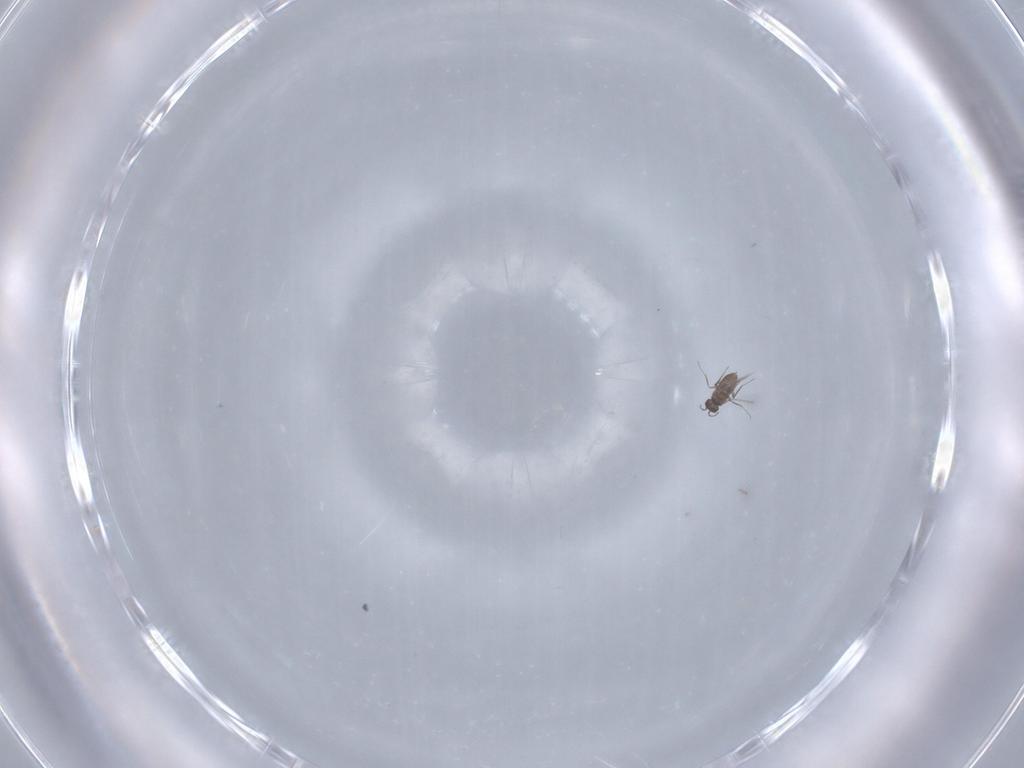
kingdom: Animalia
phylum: Arthropoda
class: Insecta
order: Hymenoptera
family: Mymaridae
